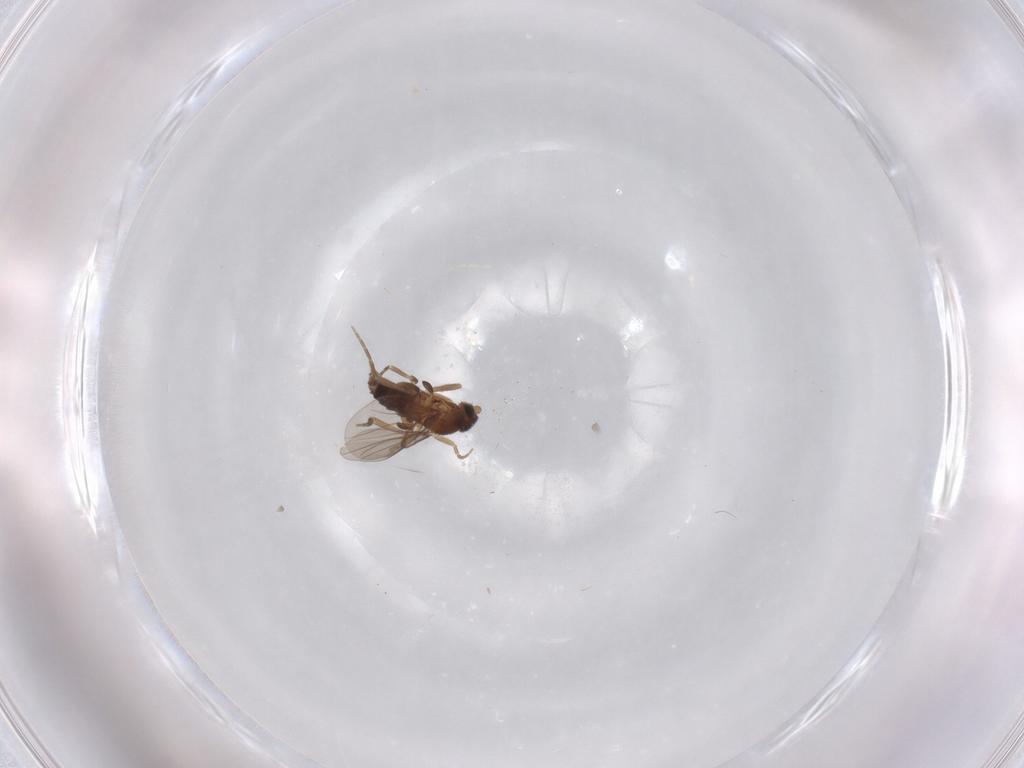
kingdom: Animalia
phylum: Arthropoda
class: Insecta
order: Diptera
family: Phoridae
